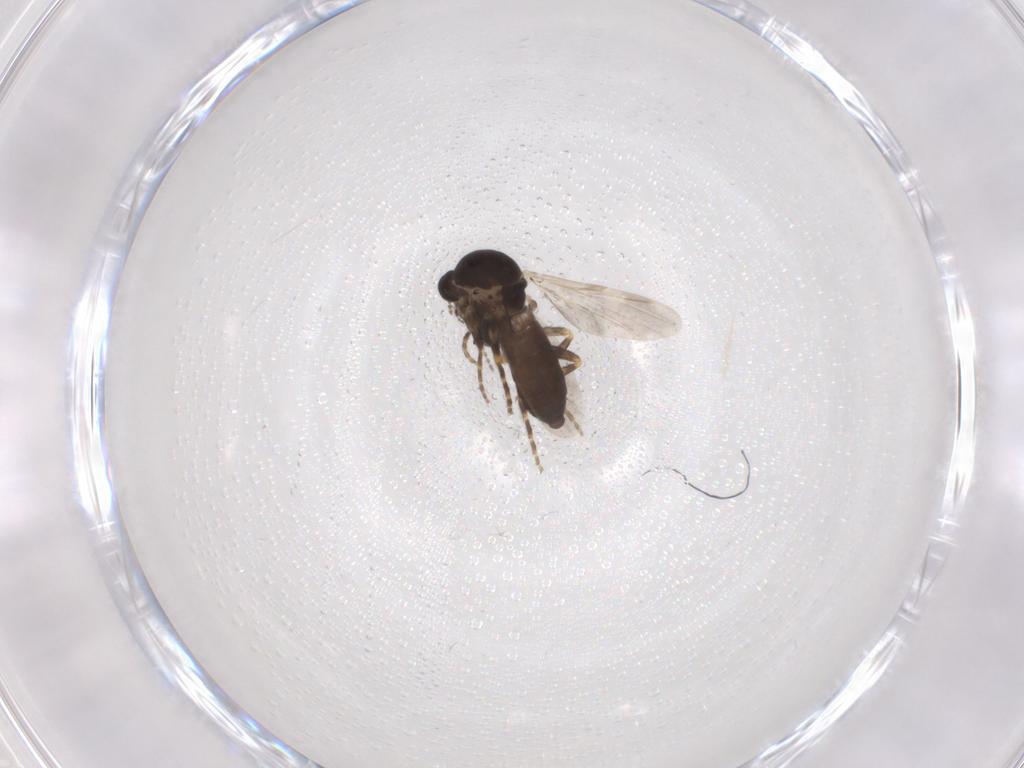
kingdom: Animalia
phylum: Arthropoda
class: Insecta
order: Diptera
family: Ceratopogonidae
